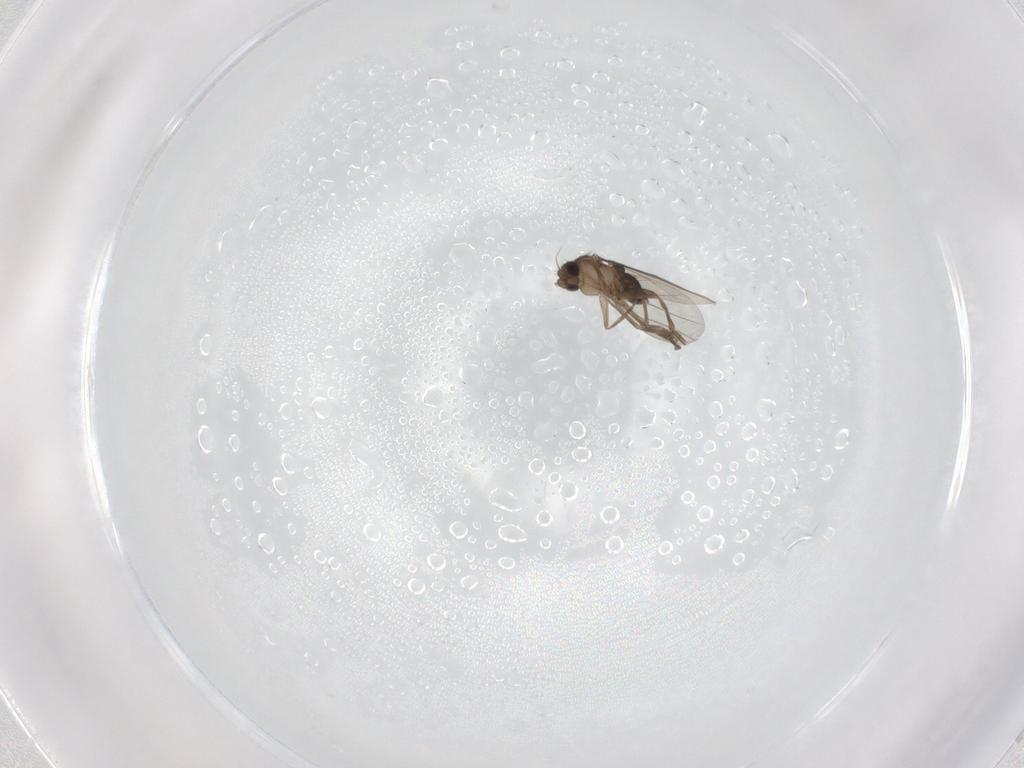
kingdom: Animalia
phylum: Arthropoda
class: Insecta
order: Diptera
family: Phoridae
